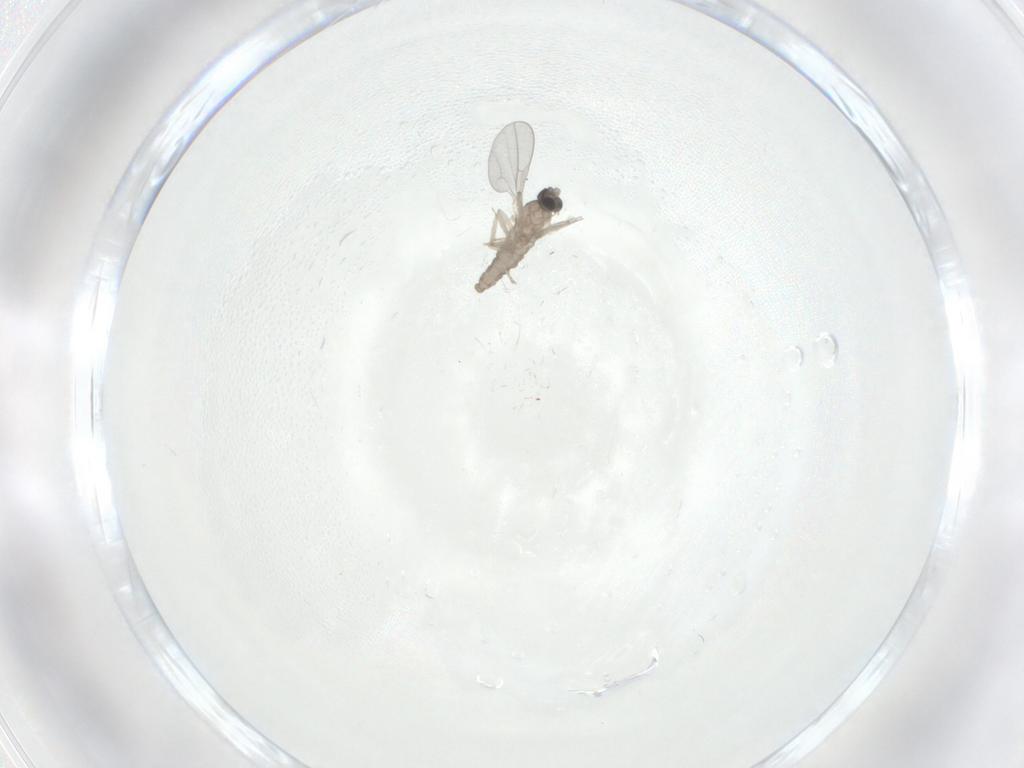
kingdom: Animalia
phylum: Arthropoda
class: Insecta
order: Diptera
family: Cecidomyiidae
